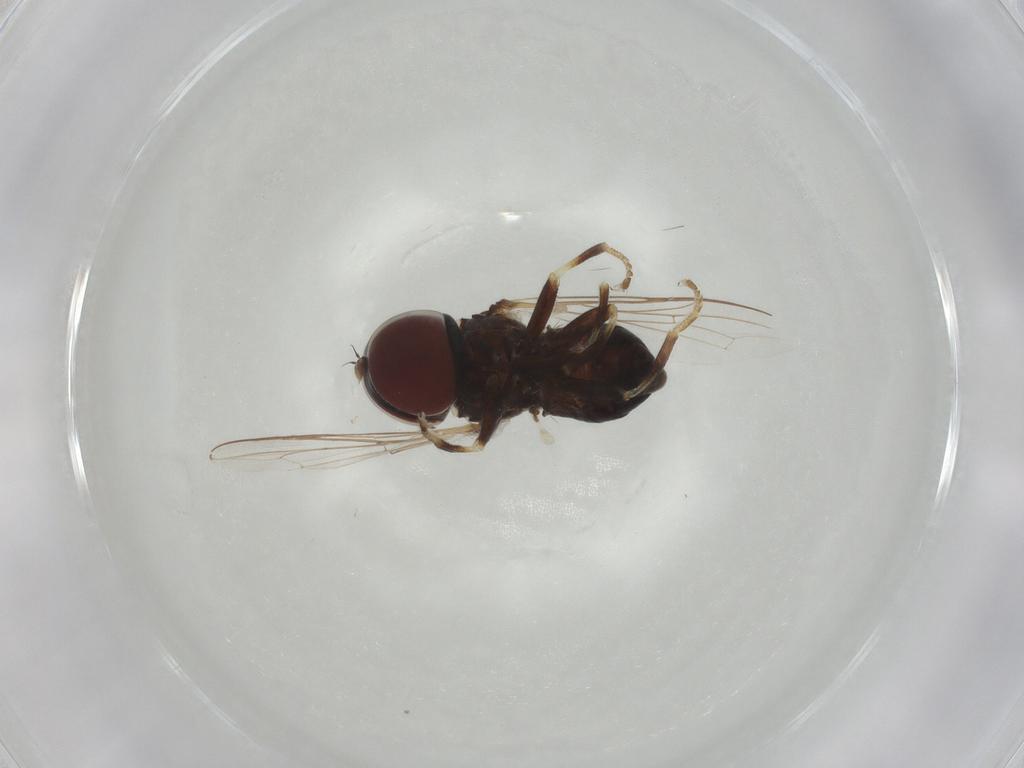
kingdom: Animalia
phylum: Arthropoda
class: Insecta
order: Diptera
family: Pipunculidae
